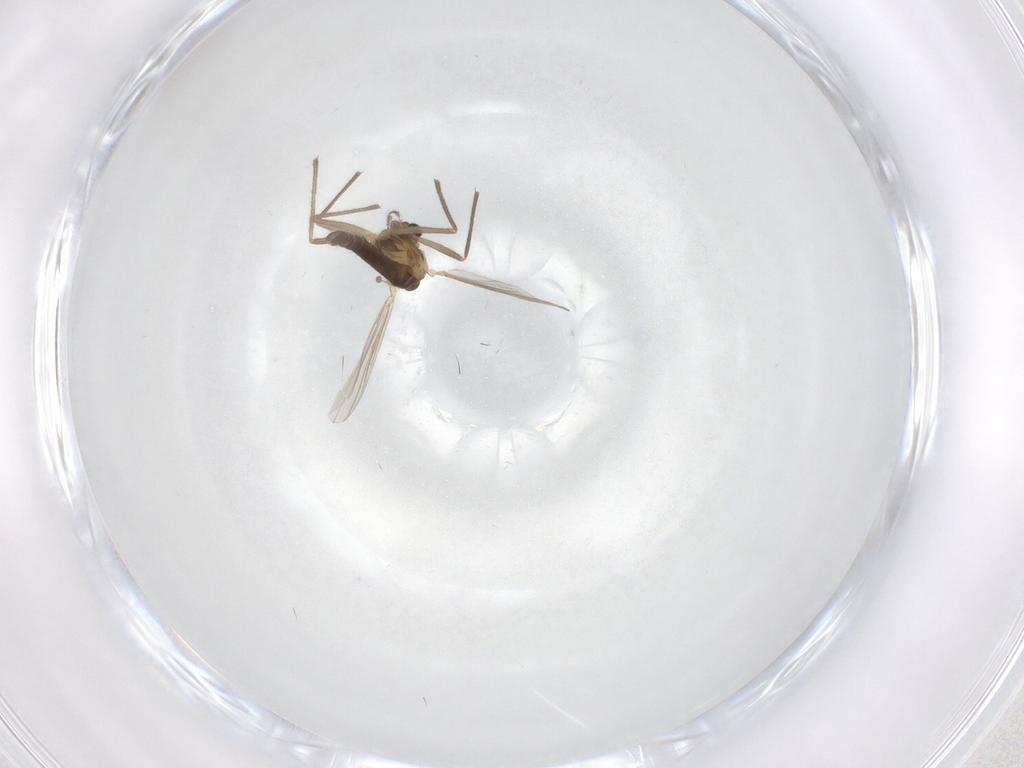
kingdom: Animalia
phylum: Arthropoda
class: Insecta
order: Diptera
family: Chironomidae
